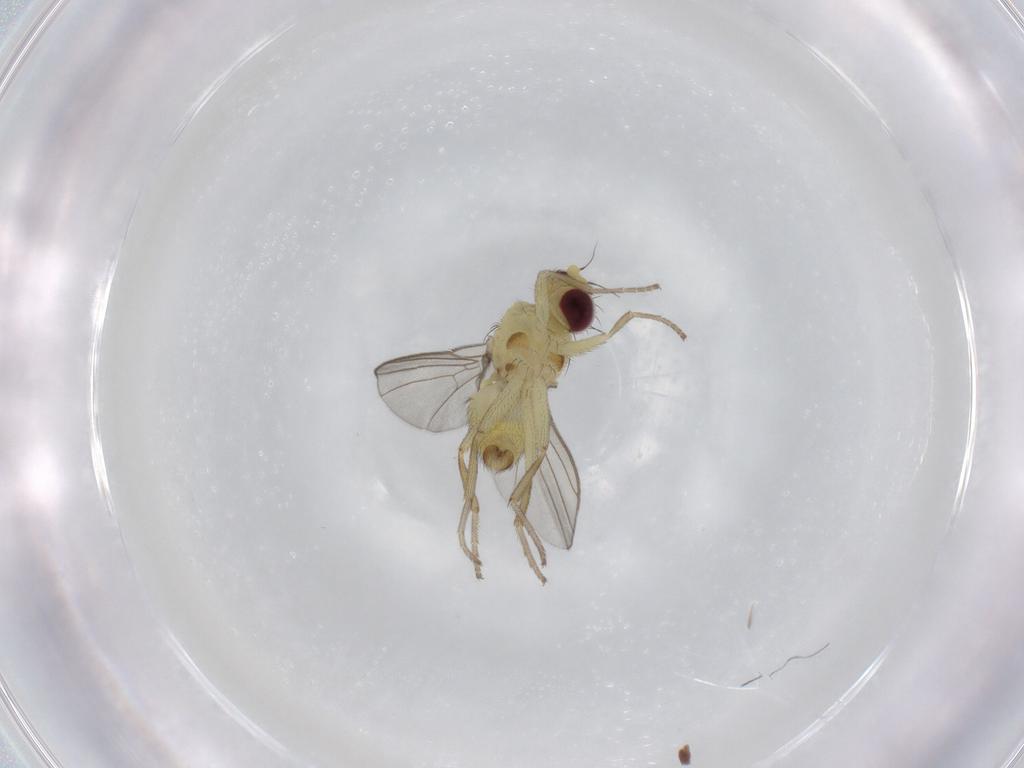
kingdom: Animalia
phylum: Arthropoda
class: Insecta
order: Diptera
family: Agromyzidae
